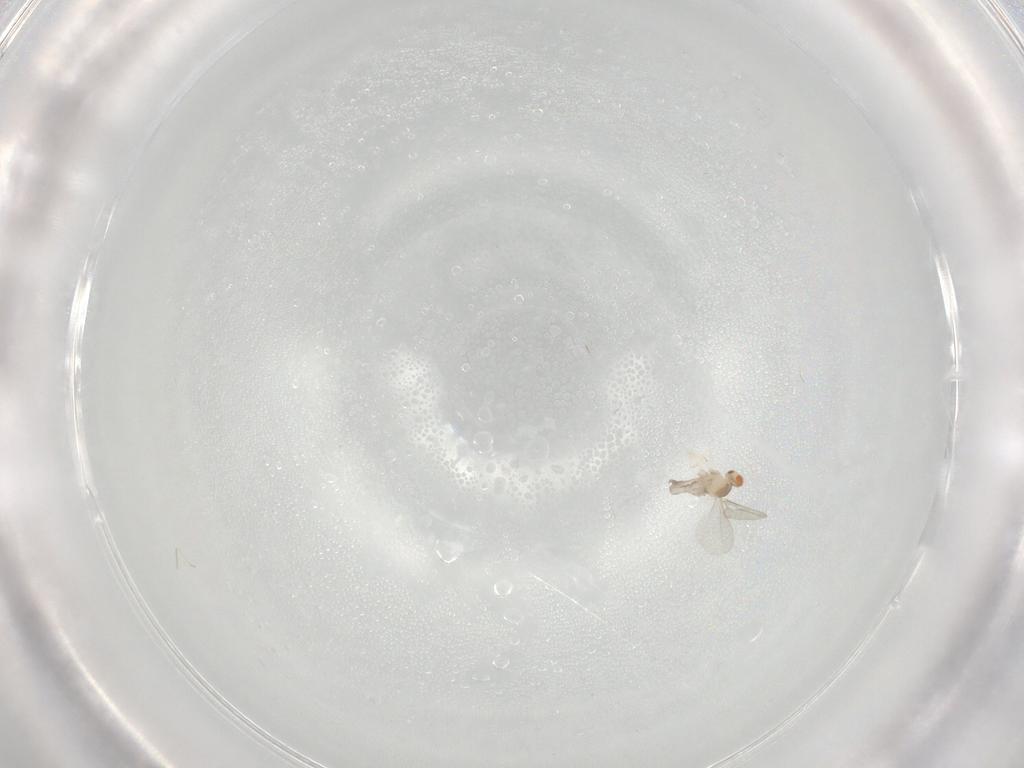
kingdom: Animalia
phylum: Arthropoda
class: Insecta
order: Diptera
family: Cecidomyiidae
